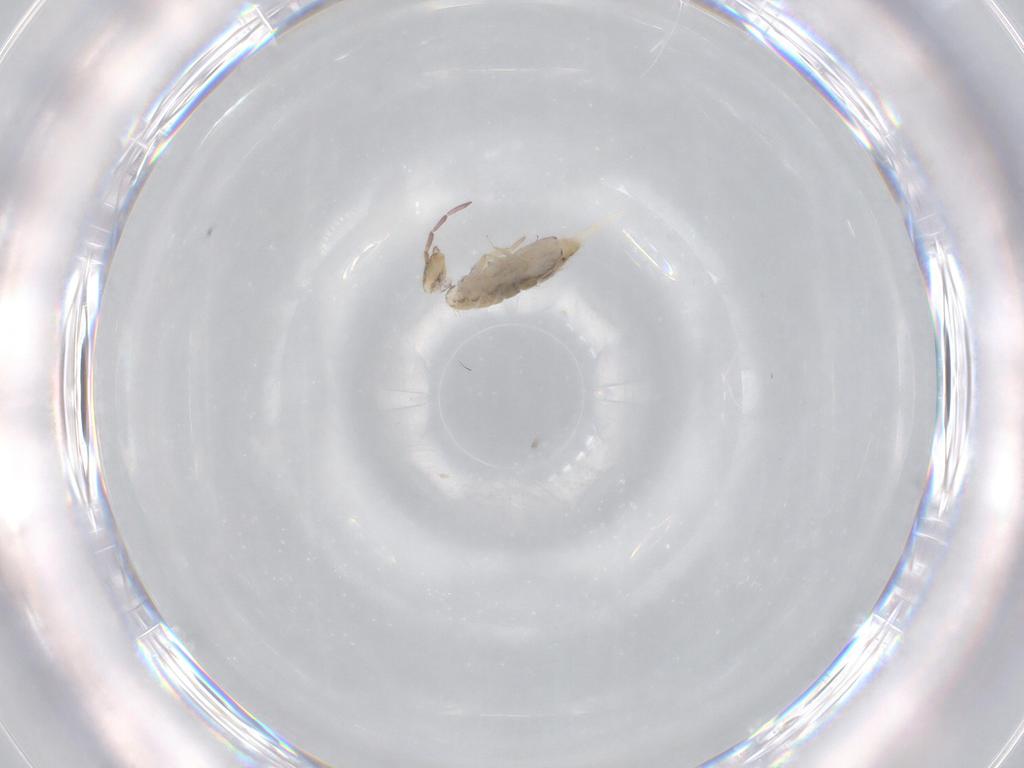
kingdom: Animalia
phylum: Arthropoda
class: Collembola
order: Entomobryomorpha
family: Entomobryidae
